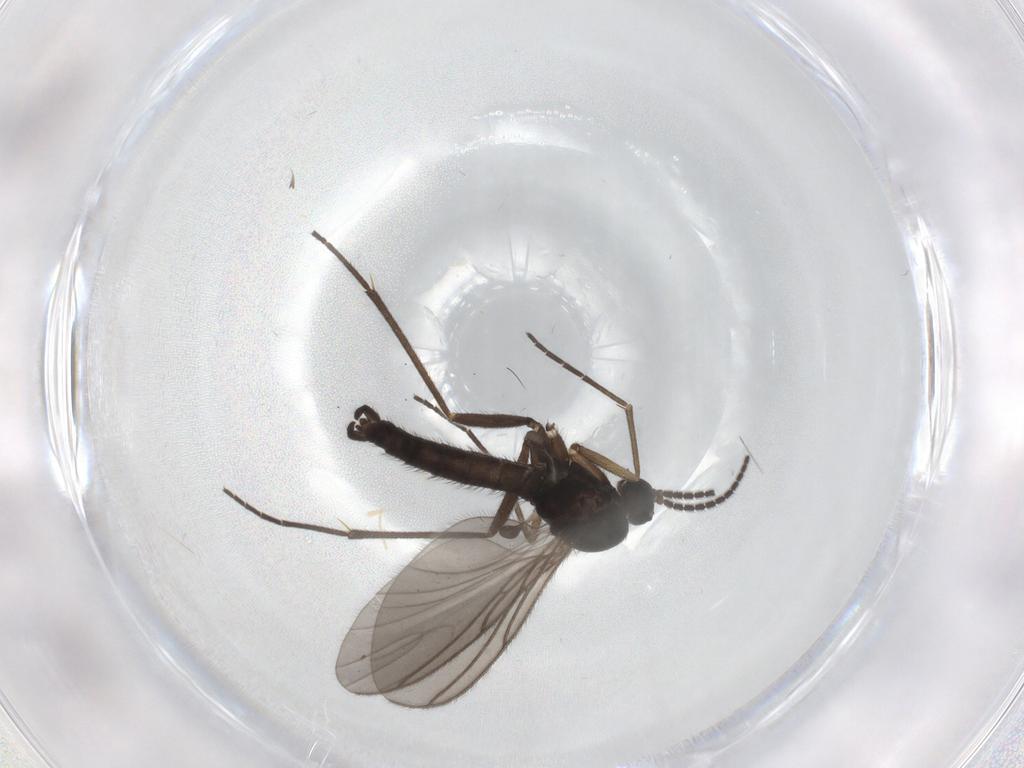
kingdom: Animalia
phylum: Arthropoda
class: Insecta
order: Diptera
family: Sciaridae
